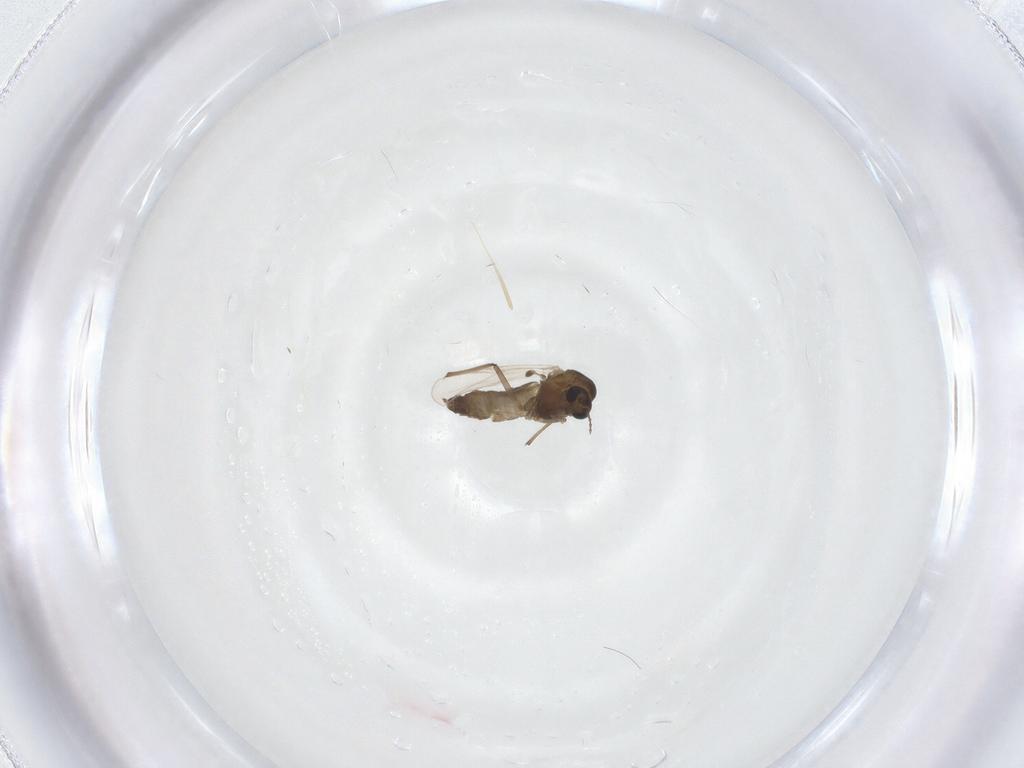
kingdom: Animalia
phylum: Arthropoda
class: Insecta
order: Diptera
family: Chironomidae
